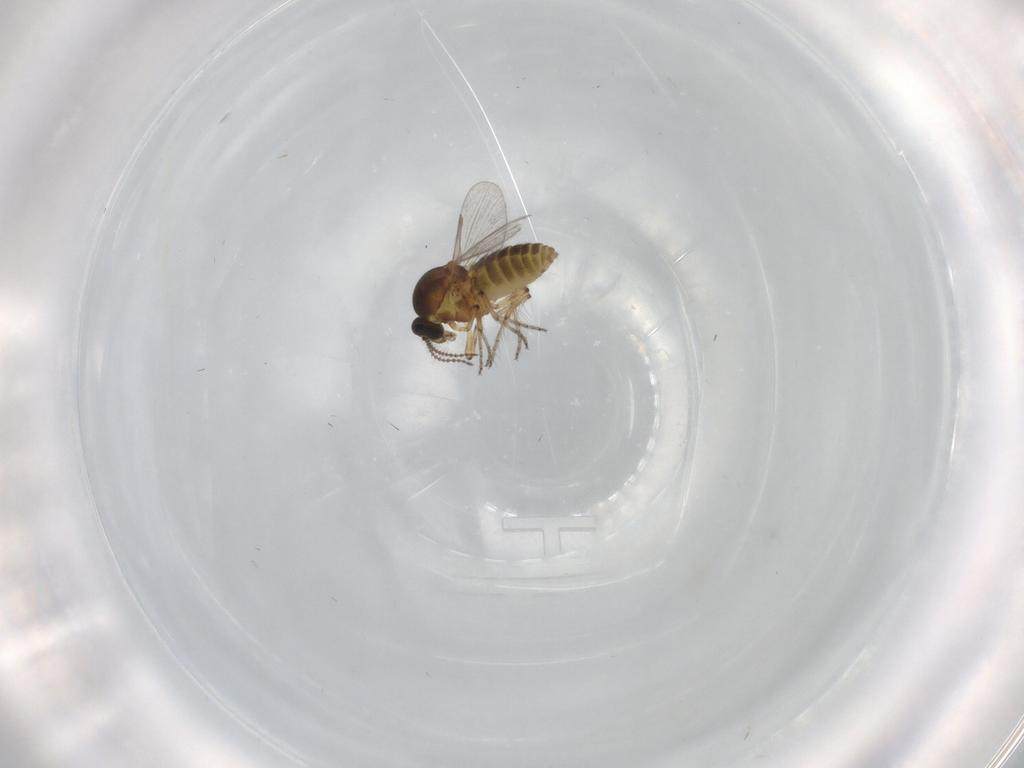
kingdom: Animalia
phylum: Arthropoda
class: Insecta
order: Diptera
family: Ceratopogonidae
